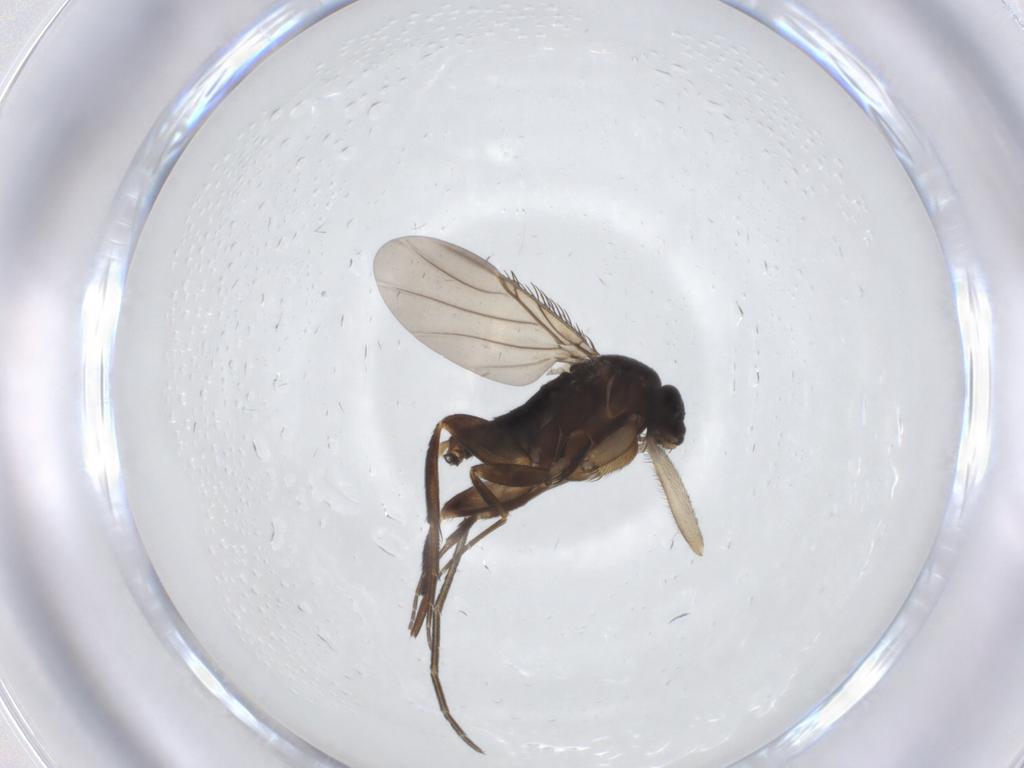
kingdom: Animalia
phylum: Arthropoda
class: Insecta
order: Diptera
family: Phoridae
